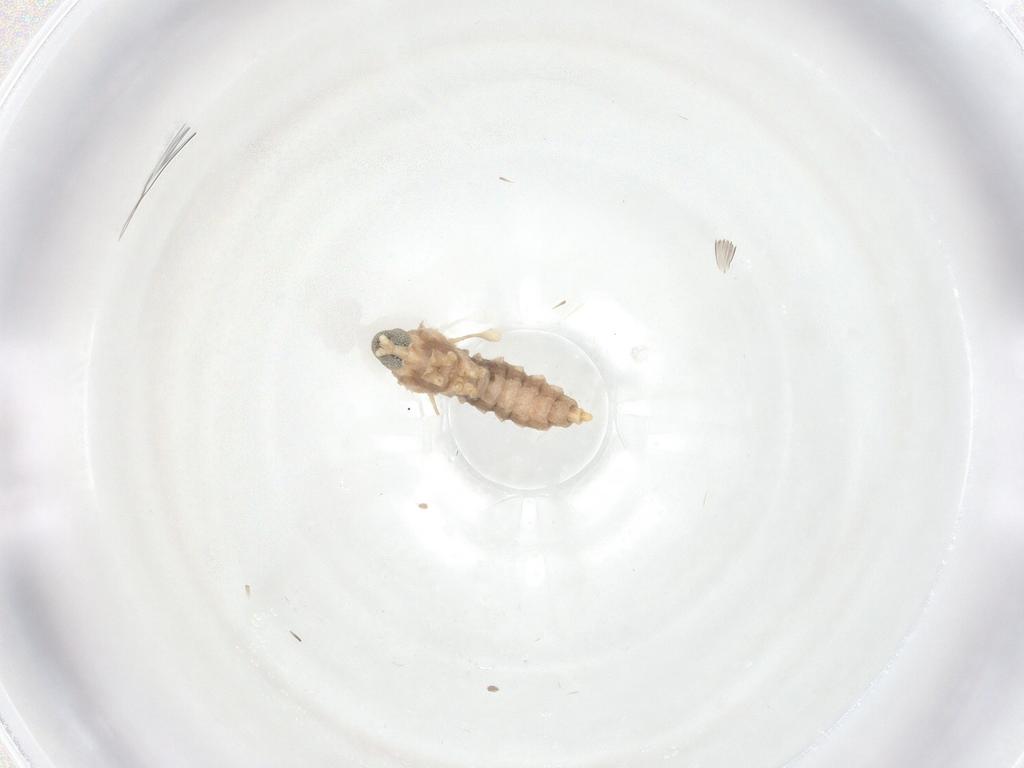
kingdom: Animalia
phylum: Arthropoda
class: Insecta
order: Diptera
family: Cecidomyiidae
